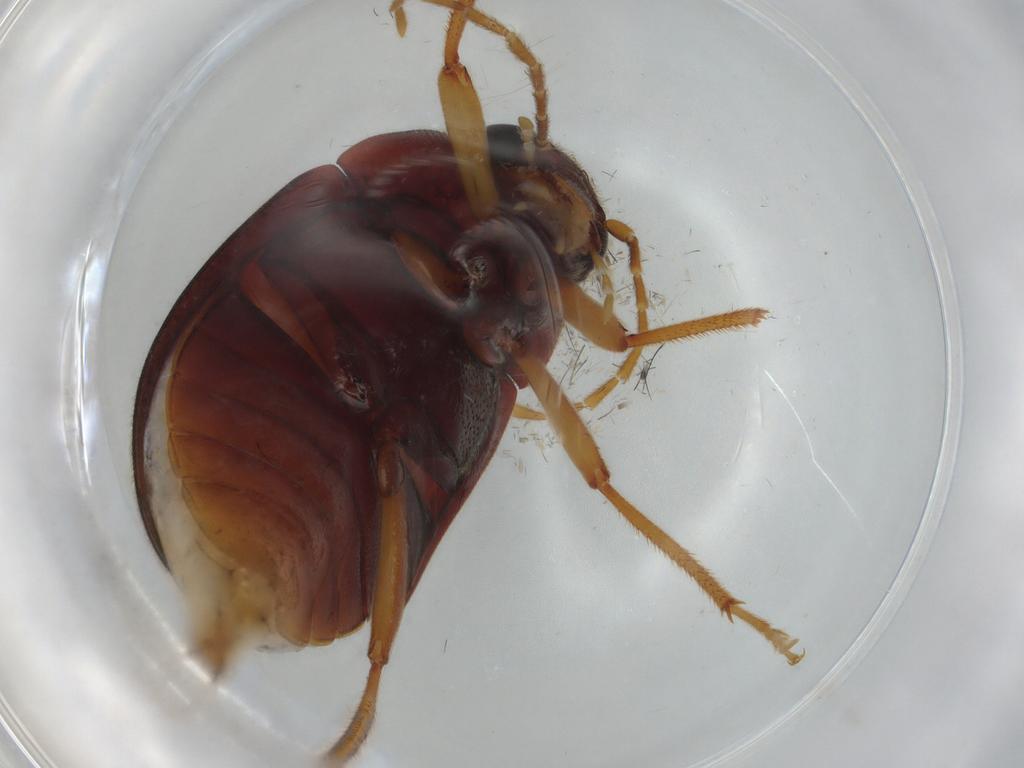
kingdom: Animalia
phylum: Arthropoda
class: Insecta
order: Coleoptera
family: Ptilodactylidae
